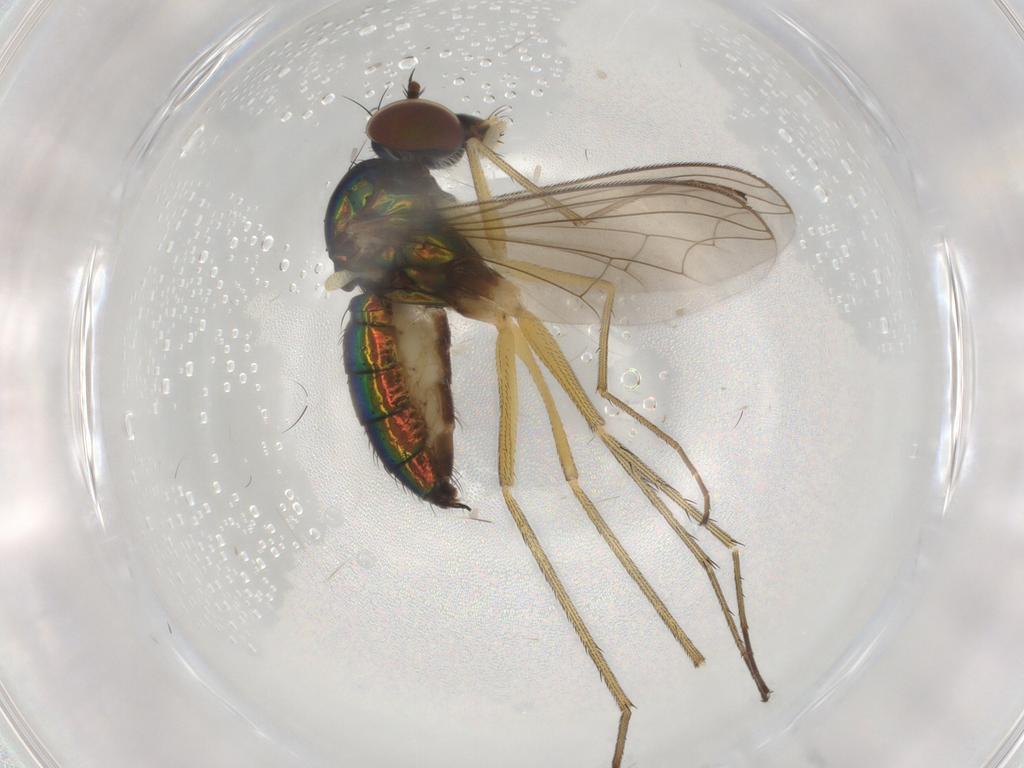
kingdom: Animalia
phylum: Arthropoda
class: Insecta
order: Diptera
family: Dolichopodidae
